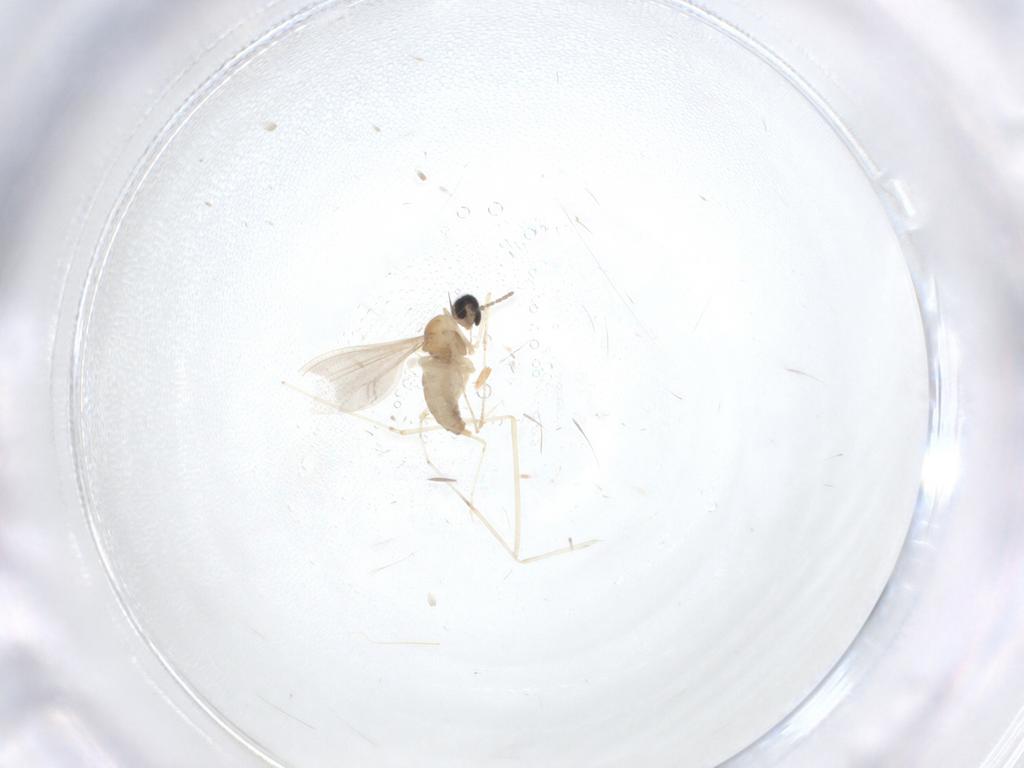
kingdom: Animalia
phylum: Arthropoda
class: Insecta
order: Diptera
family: Cecidomyiidae
